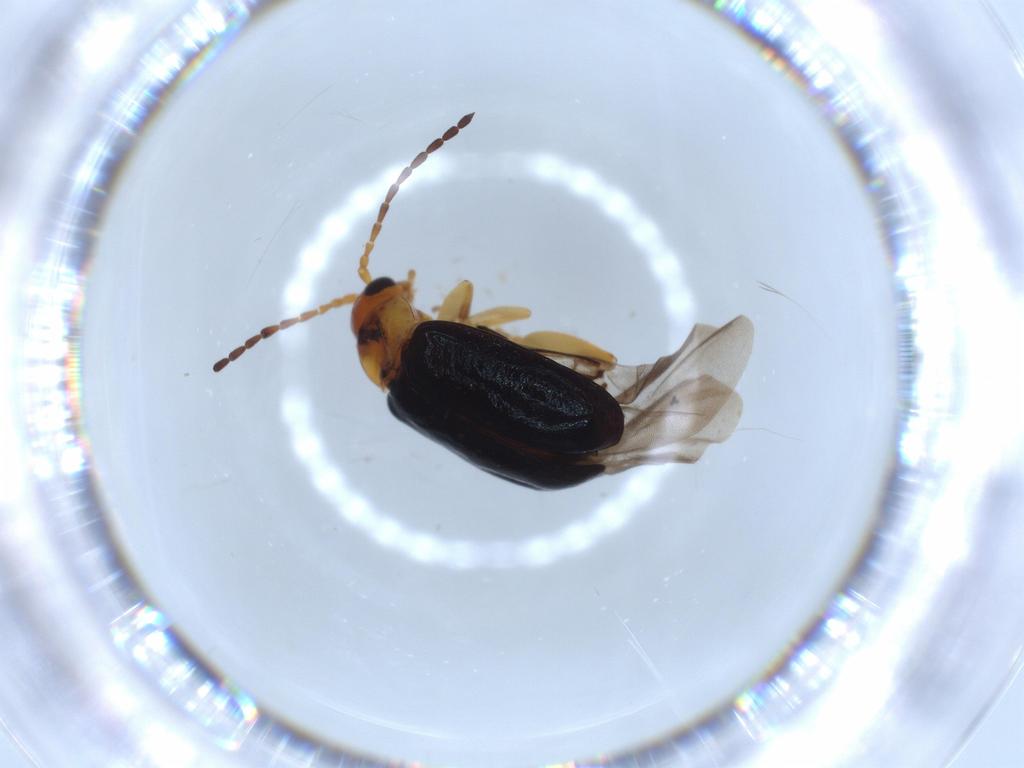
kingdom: Animalia
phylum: Arthropoda
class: Insecta
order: Coleoptera
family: Chrysomelidae
